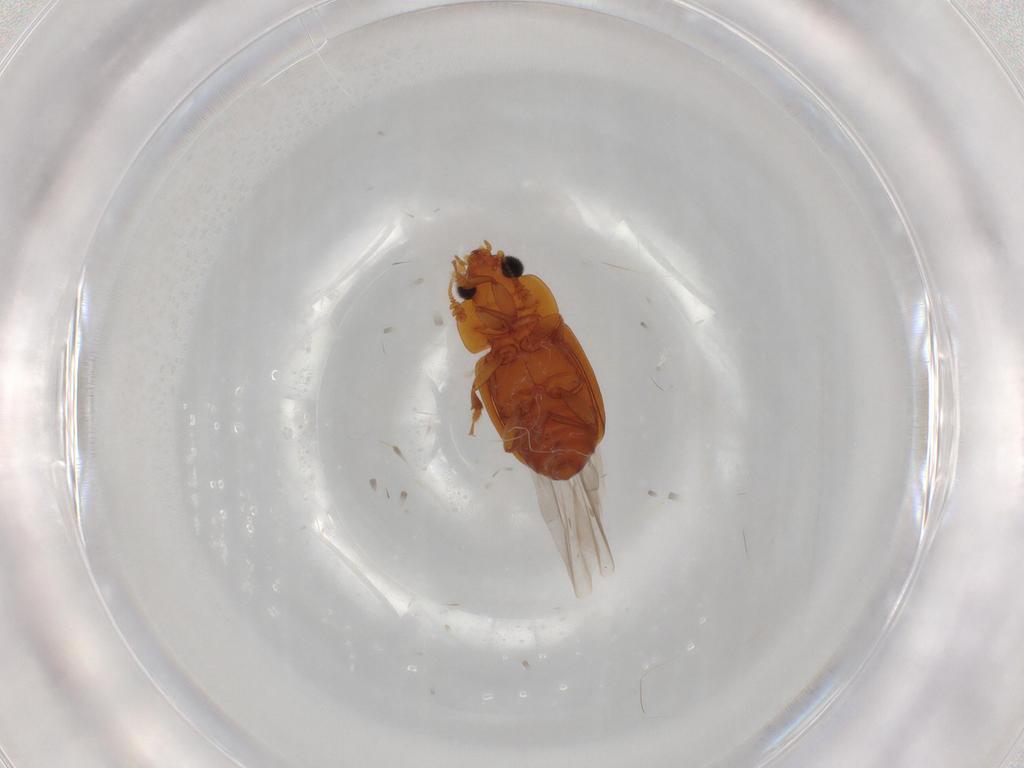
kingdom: Animalia
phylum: Arthropoda
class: Insecta
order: Coleoptera
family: Nitidulidae
